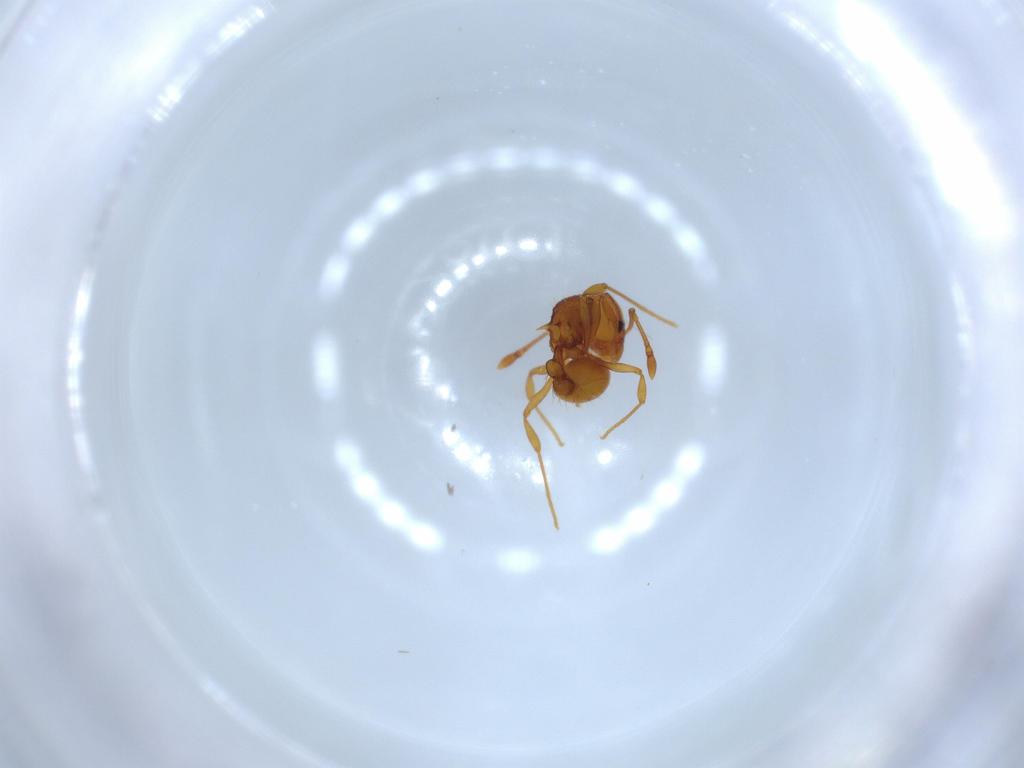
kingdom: Animalia
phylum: Arthropoda
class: Insecta
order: Hymenoptera
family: Formicidae
